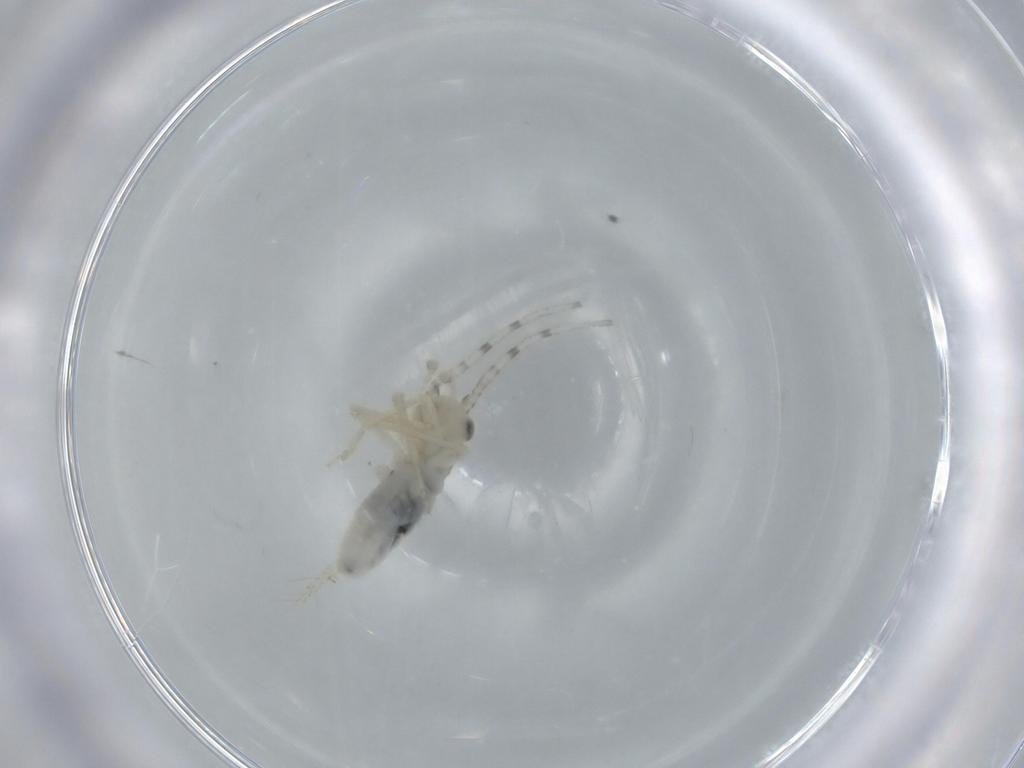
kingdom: Animalia
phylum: Arthropoda
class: Insecta
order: Orthoptera
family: Trigonidiidae
